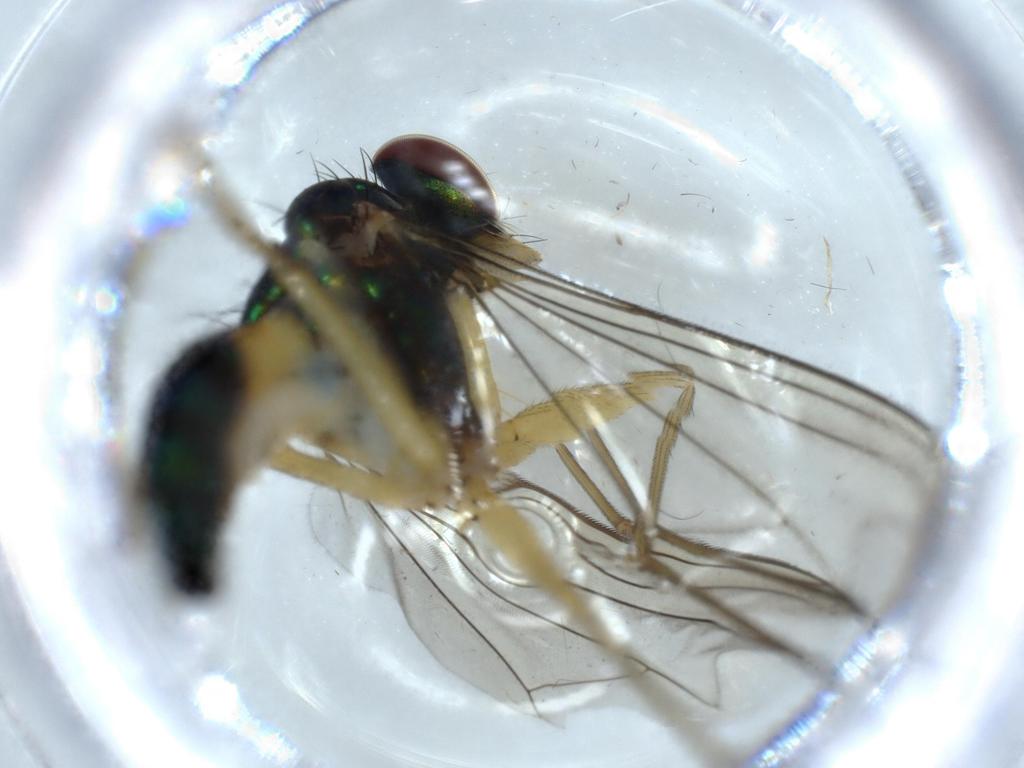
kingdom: Animalia
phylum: Arthropoda
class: Insecta
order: Diptera
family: Dolichopodidae
